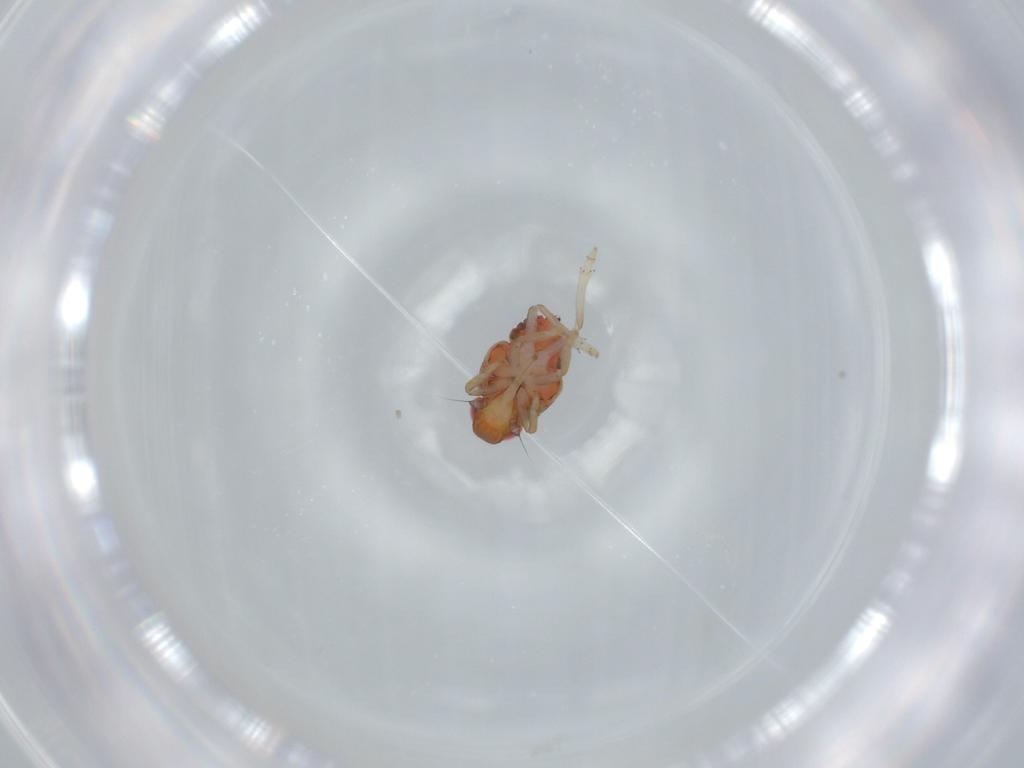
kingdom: Animalia
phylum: Arthropoda
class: Insecta
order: Hemiptera
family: Issidae
